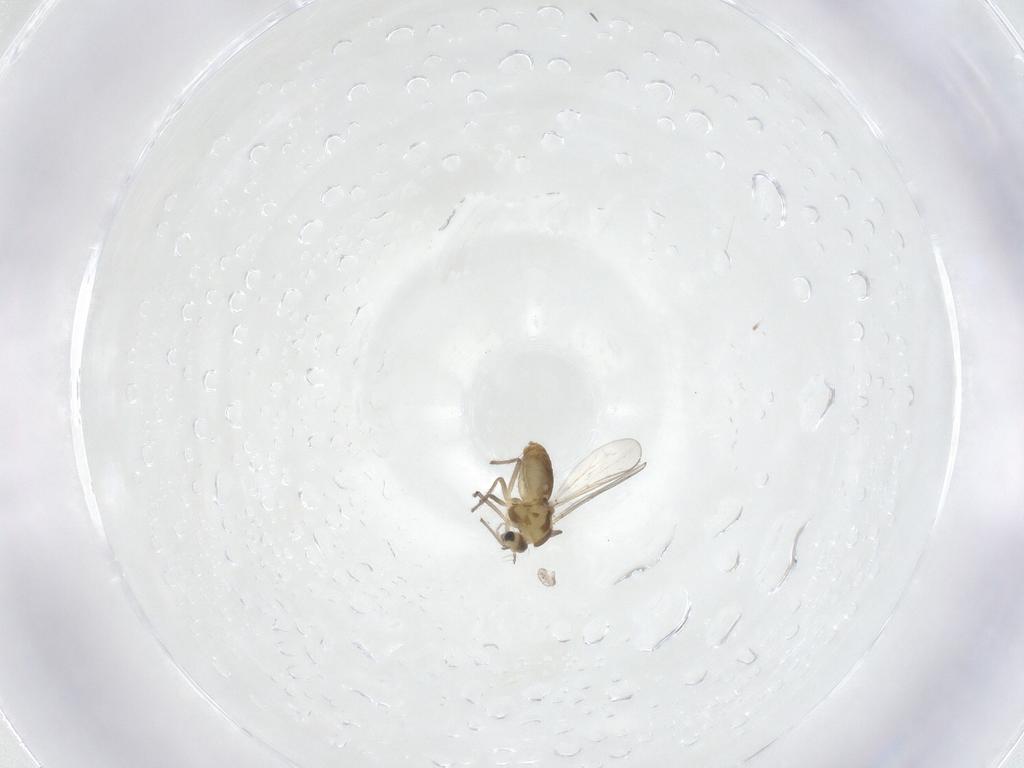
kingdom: Animalia
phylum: Arthropoda
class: Insecta
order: Diptera
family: Chironomidae
